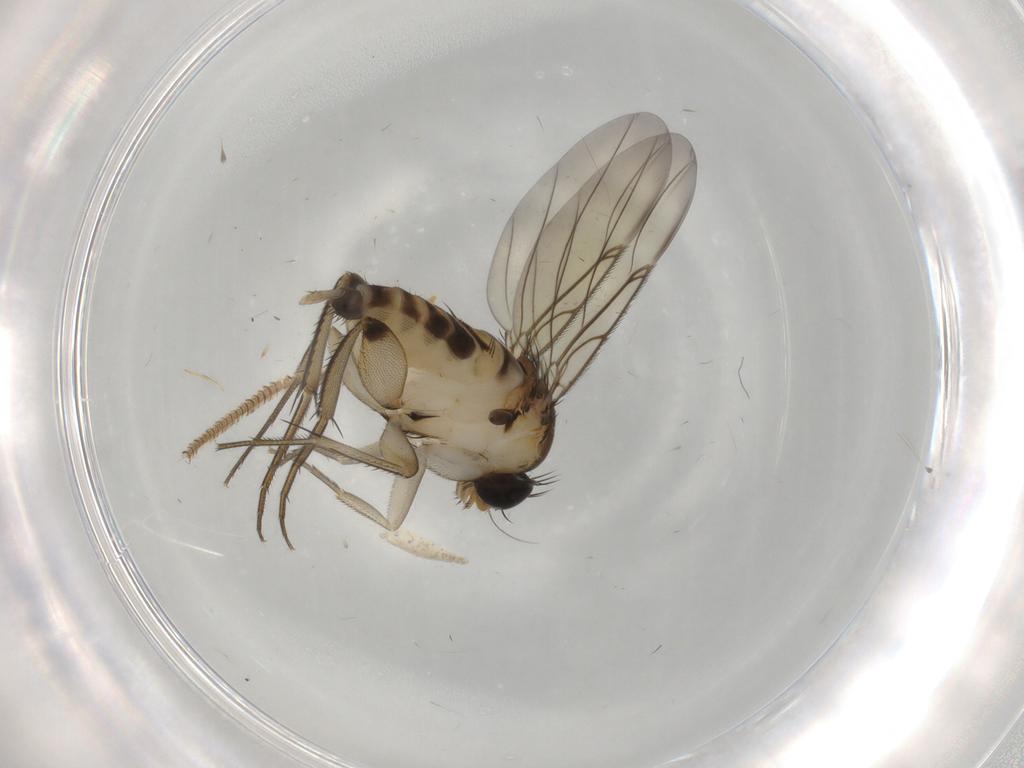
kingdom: Animalia
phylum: Arthropoda
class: Insecta
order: Diptera
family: Phoridae
